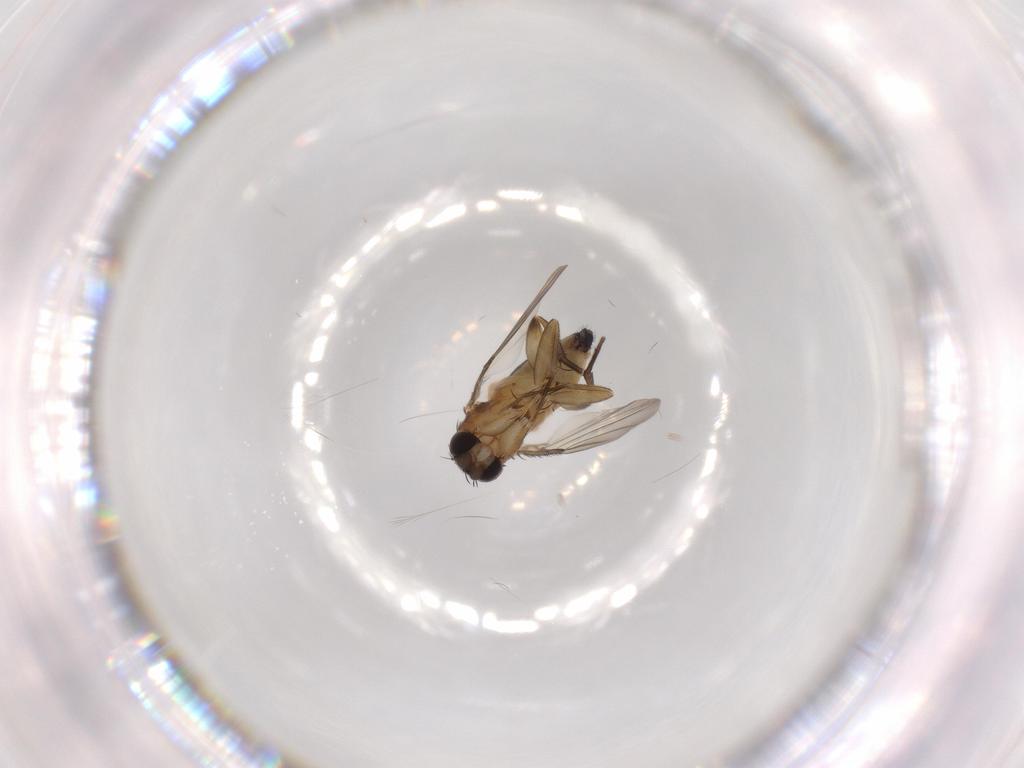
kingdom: Animalia
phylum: Arthropoda
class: Insecta
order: Diptera
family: Phoridae
